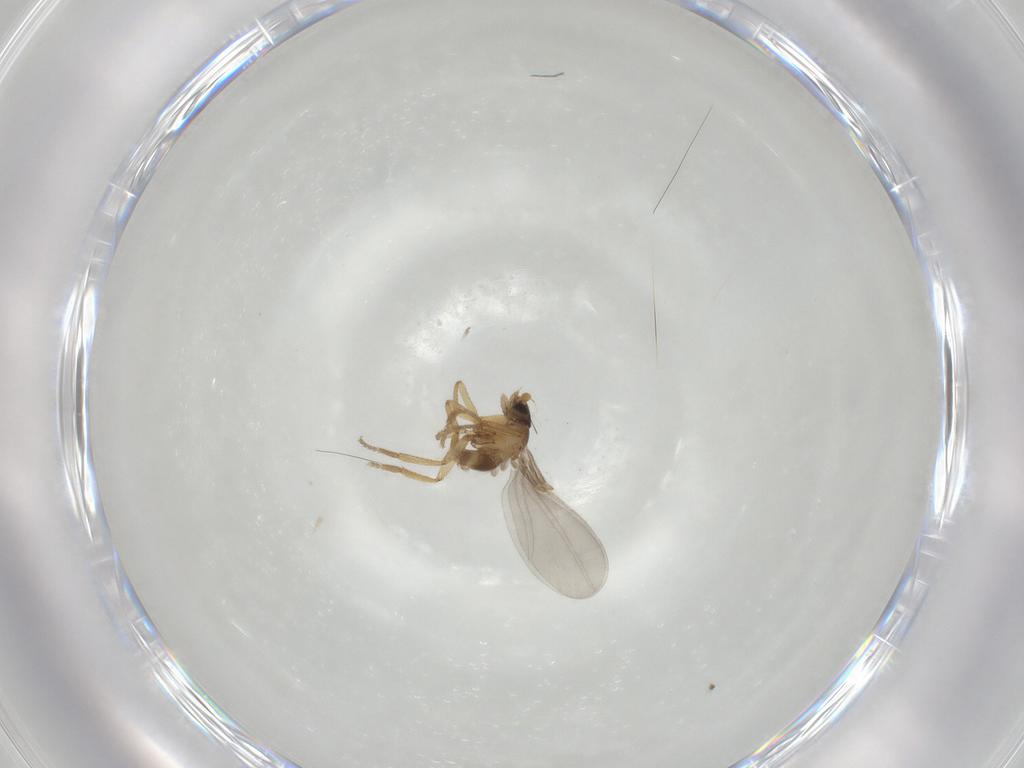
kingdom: Animalia
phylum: Arthropoda
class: Insecta
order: Diptera
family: Phoridae
